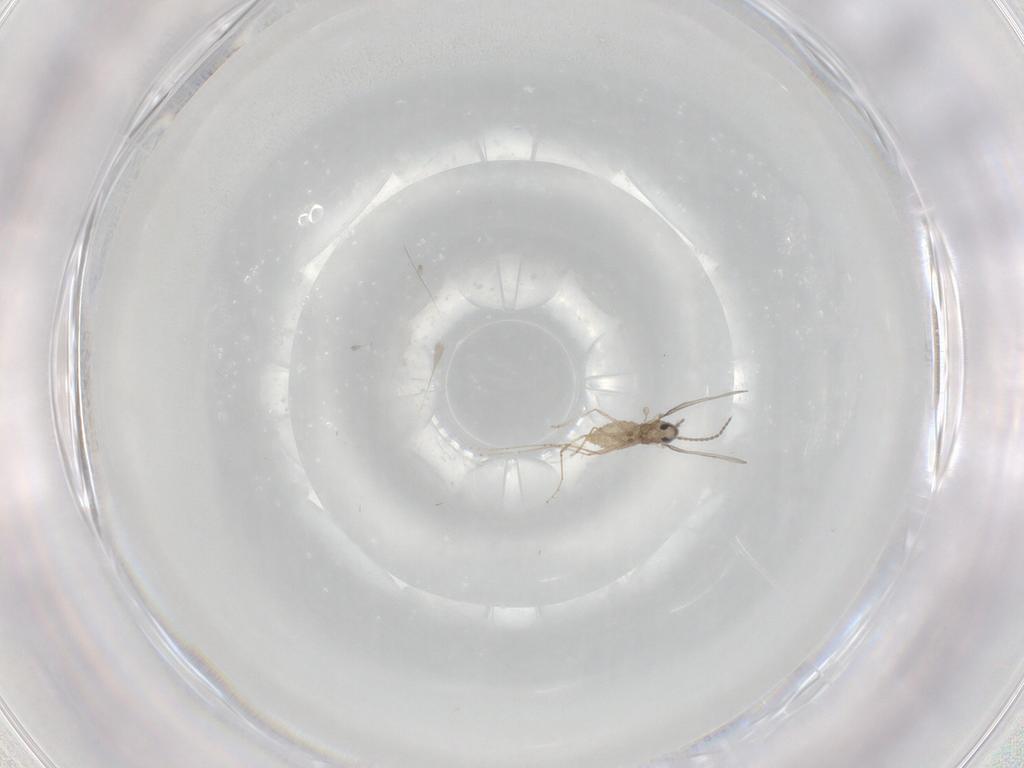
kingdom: Animalia
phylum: Arthropoda
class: Insecta
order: Diptera
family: Cecidomyiidae
